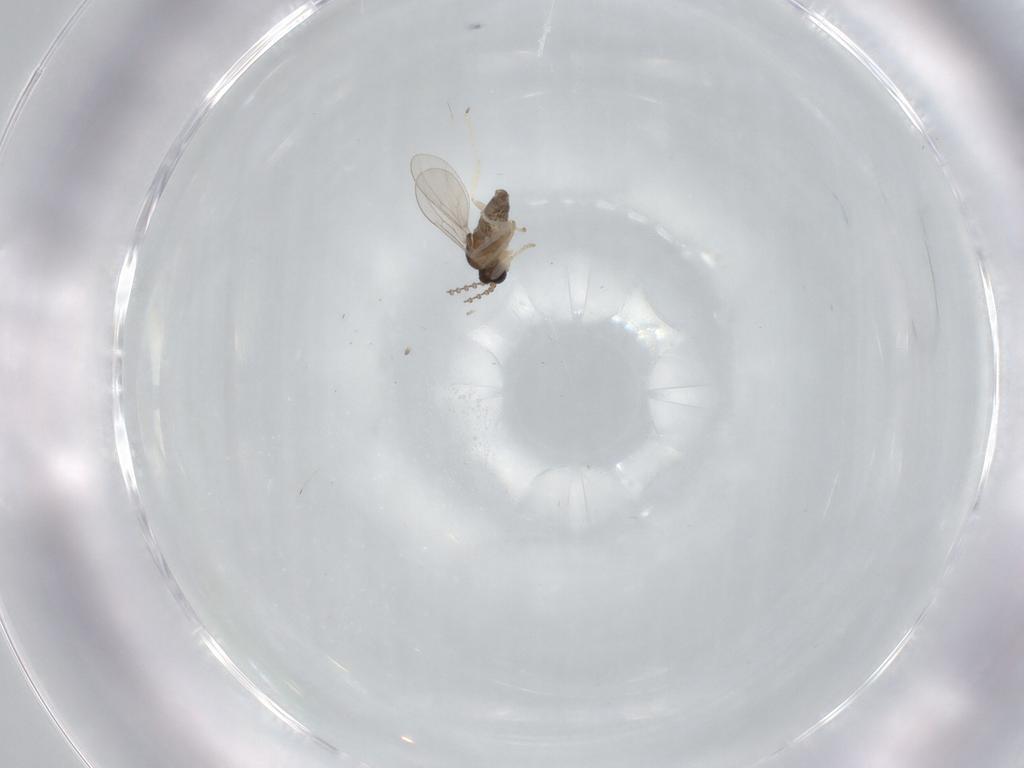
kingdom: Animalia
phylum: Arthropoda
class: Insecta
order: Diptera
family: Cecidomyiidae
